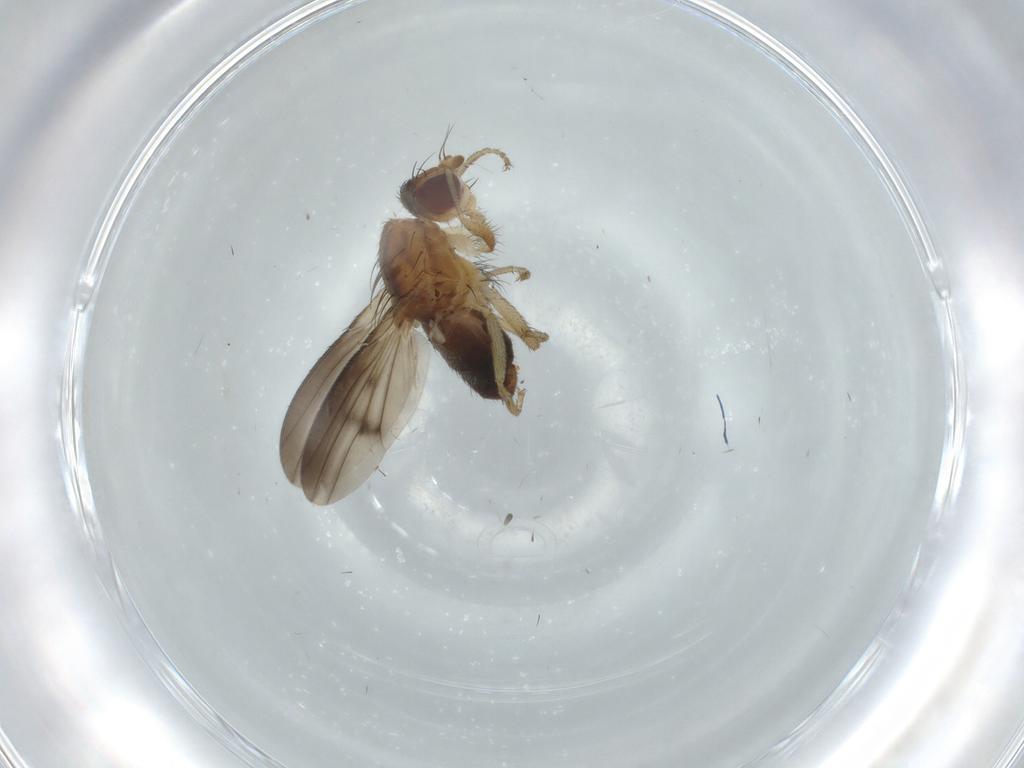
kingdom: Animalia
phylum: Arthropoda
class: Insecta
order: Diptera
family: Heleomyzidae
